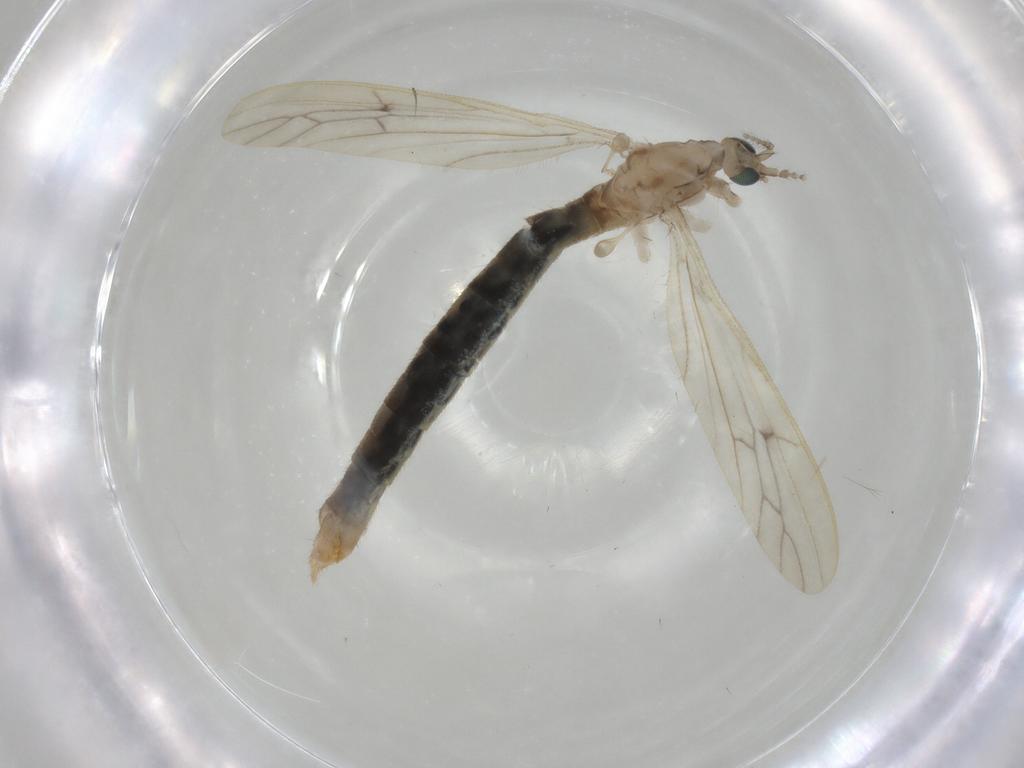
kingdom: Animalia
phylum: Arthropoda
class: Insecta
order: Diptera
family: Limoniidae
